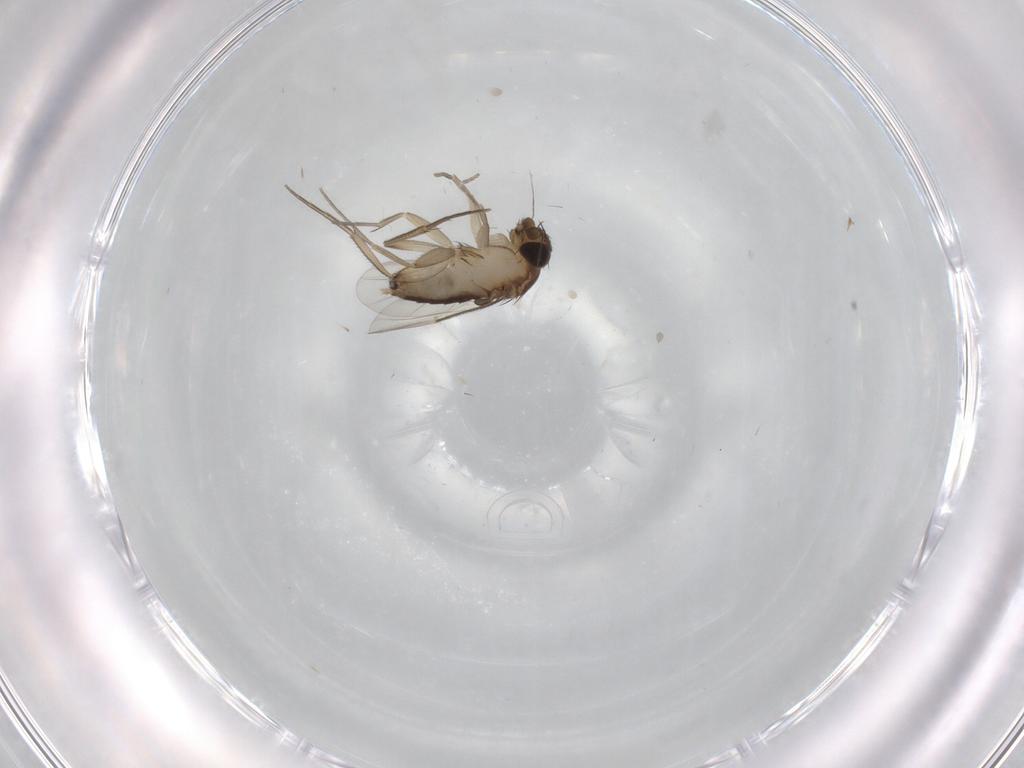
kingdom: Animalia
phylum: Arthropoda
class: Insecta
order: Diptera
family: Phoridae
